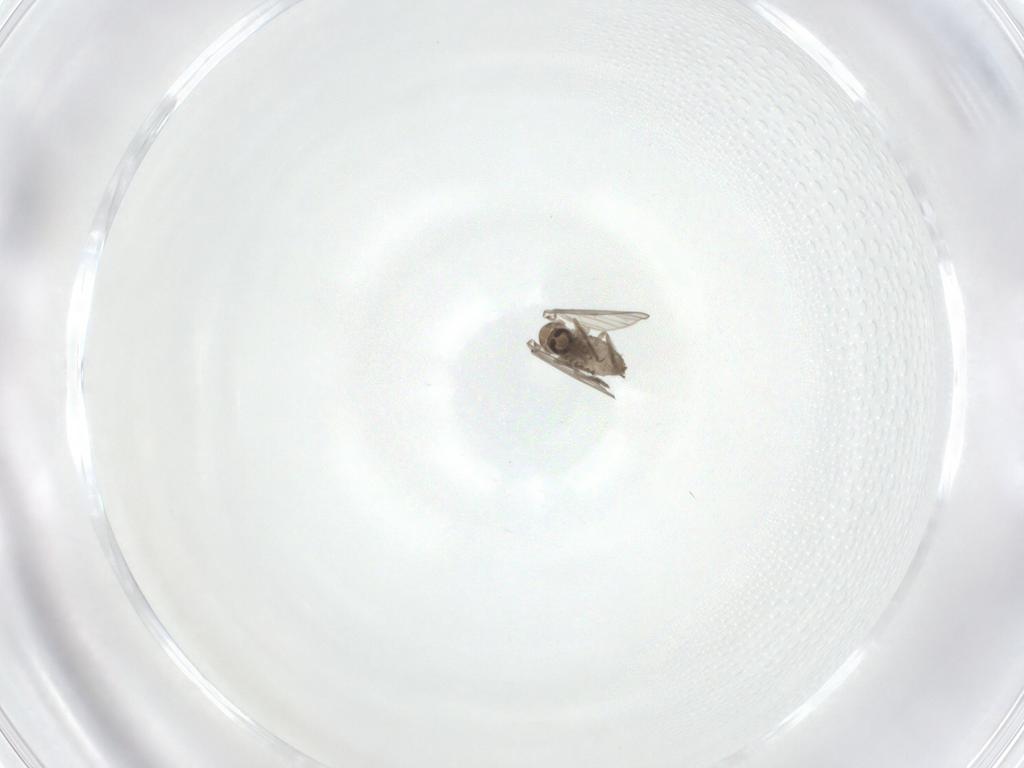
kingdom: Animalia
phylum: Arthropoda
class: Insecta
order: Diptera
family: Psychodidae
